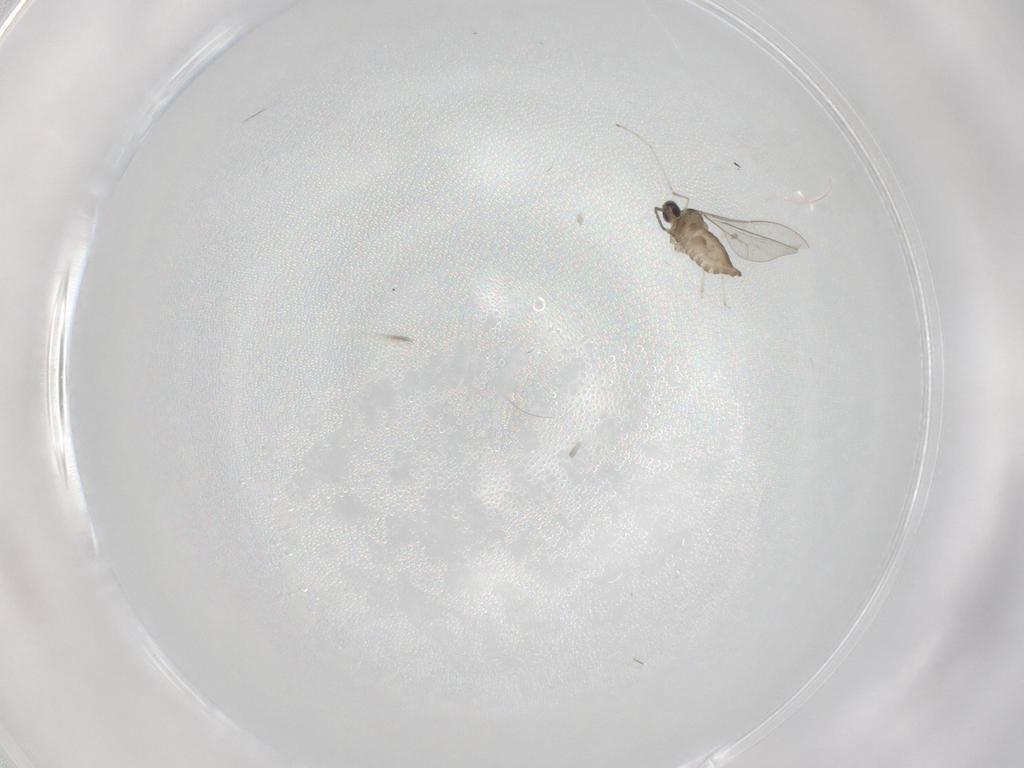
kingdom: Animalia
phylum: Arthropoda
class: Insecta
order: Diptera
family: Cecidomyiidae
